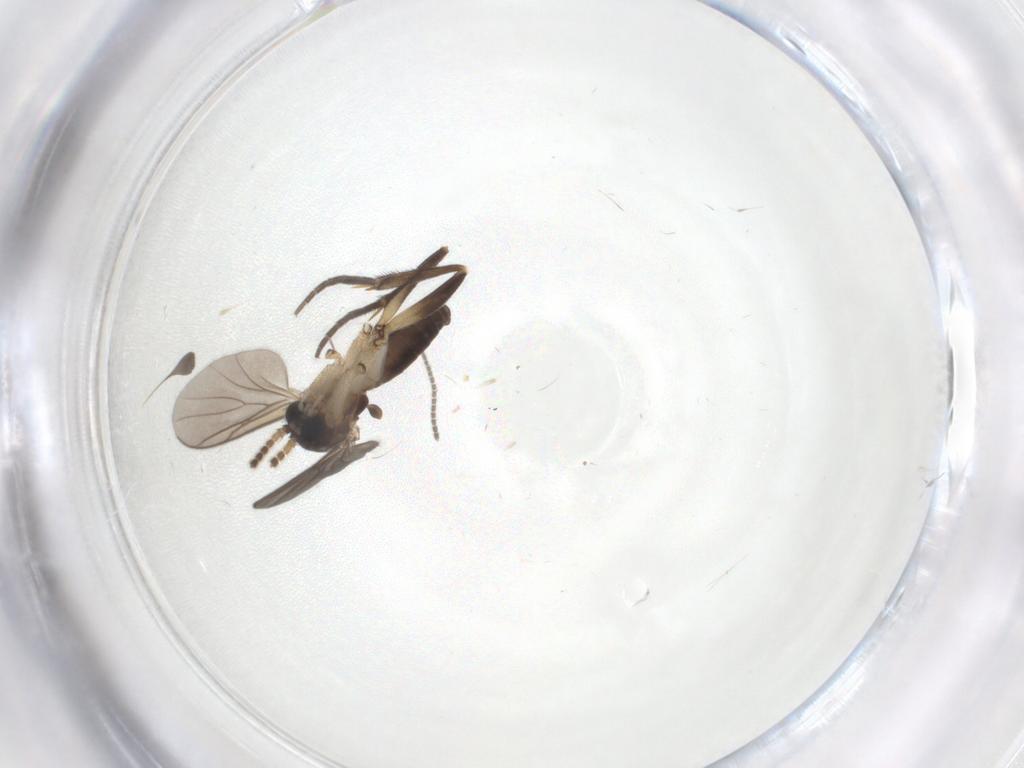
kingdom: Animalia
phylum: Arthropoda
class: Insecta
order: Diptera
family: Sciaridae
